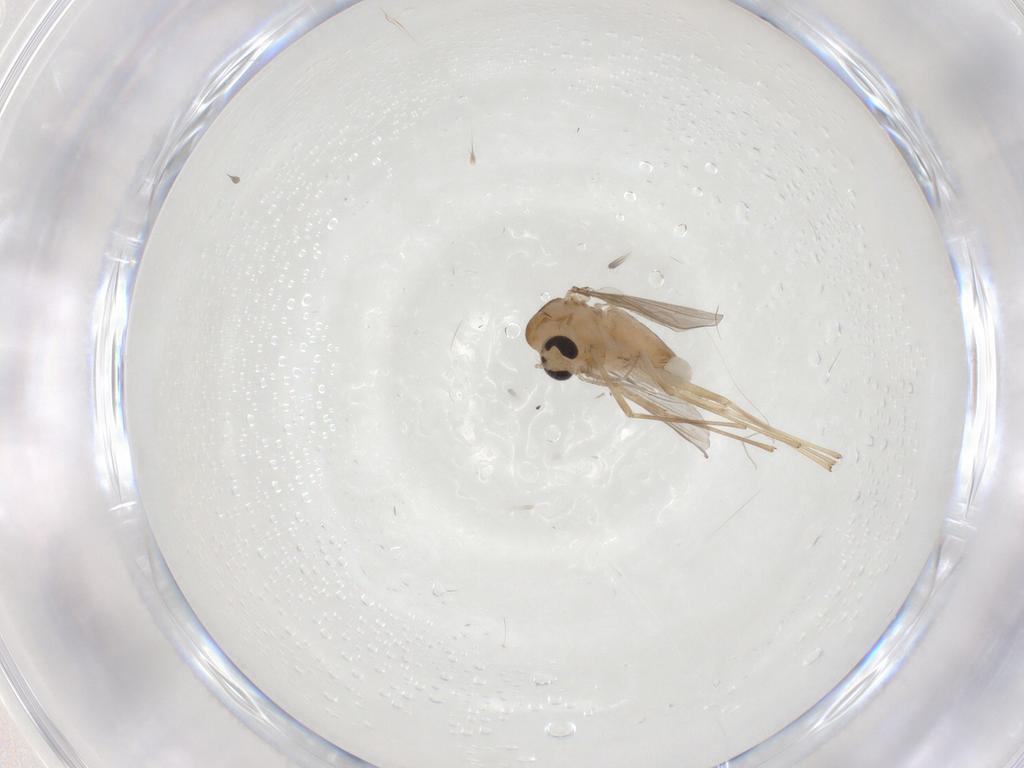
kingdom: Animalia
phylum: Arthropoda
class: Insecta
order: Diptera
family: Chironomidae
